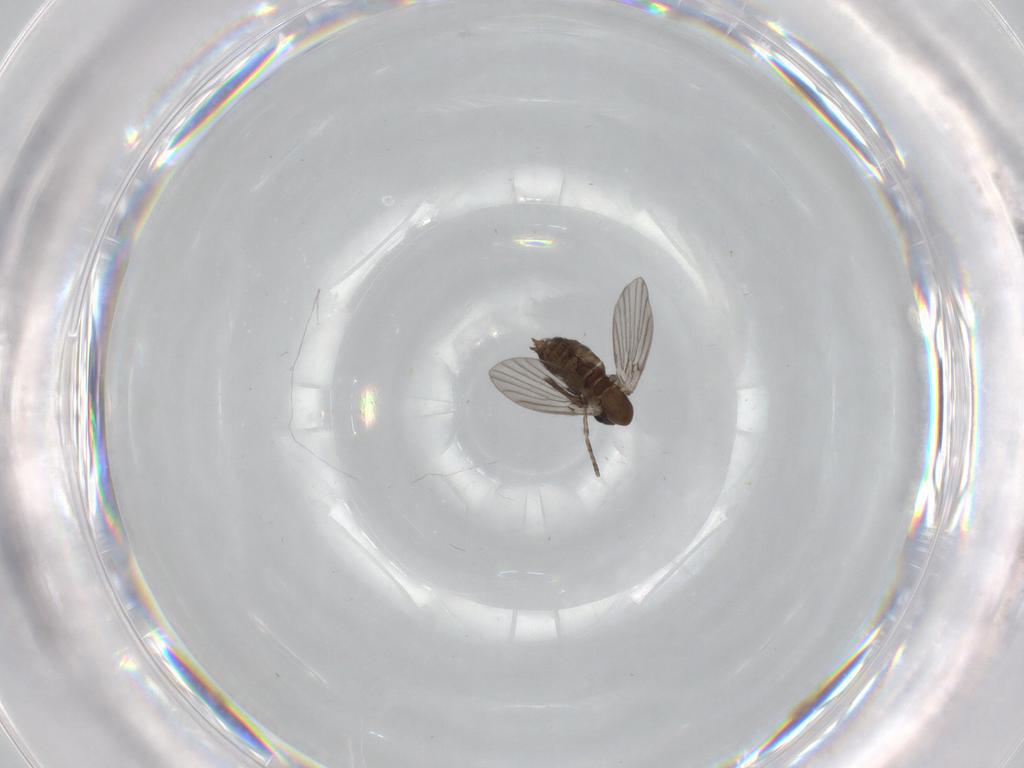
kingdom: Animalia
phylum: Arthropoda
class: Insecta
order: Diptera
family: Limoniidae
